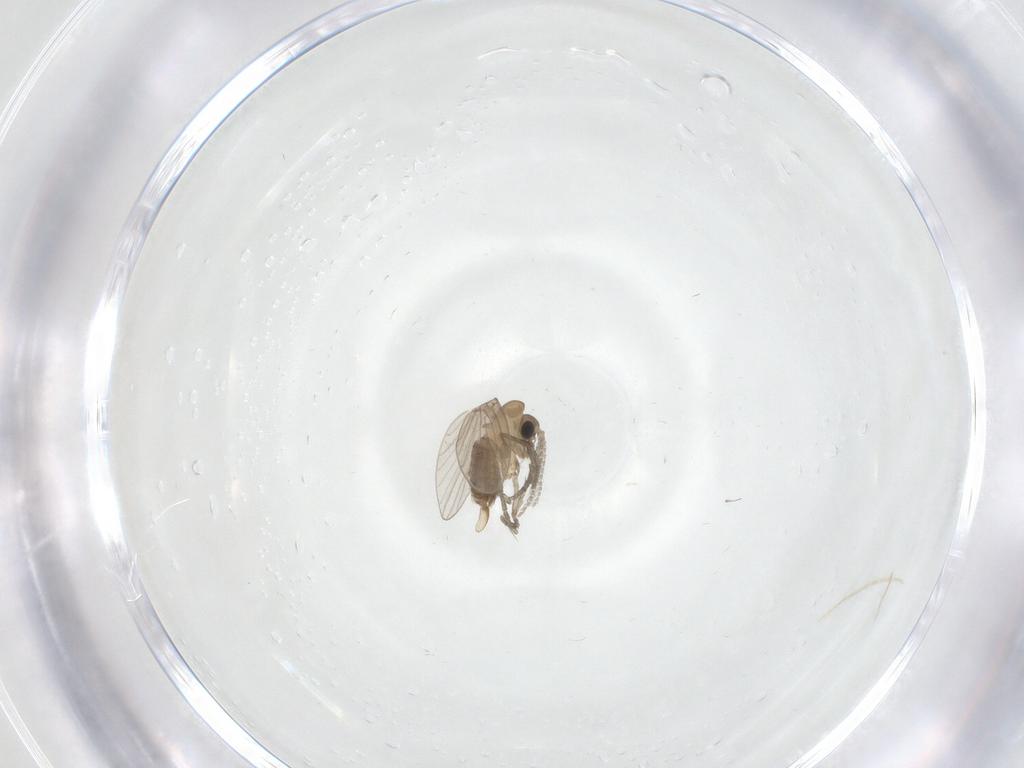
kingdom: Animalia
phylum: Arthropoda
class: Insecta
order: Diptera
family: Psychodidae
